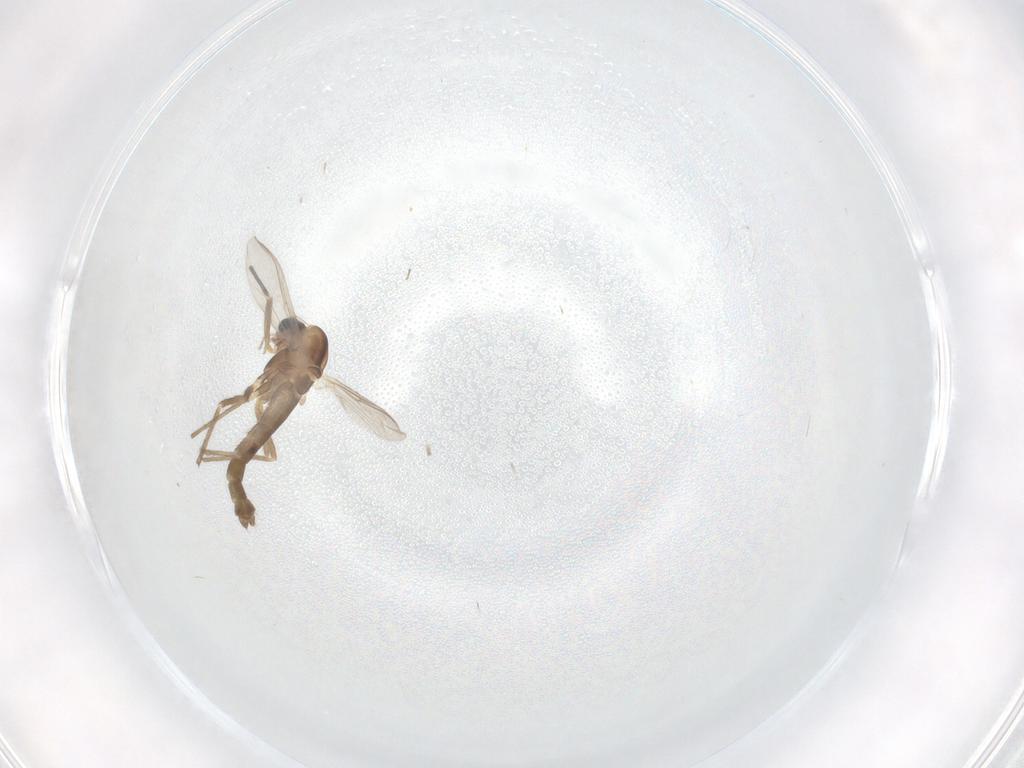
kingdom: Animalia
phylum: Arthropoda
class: Insecta
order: Diptera
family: Chironomidae
